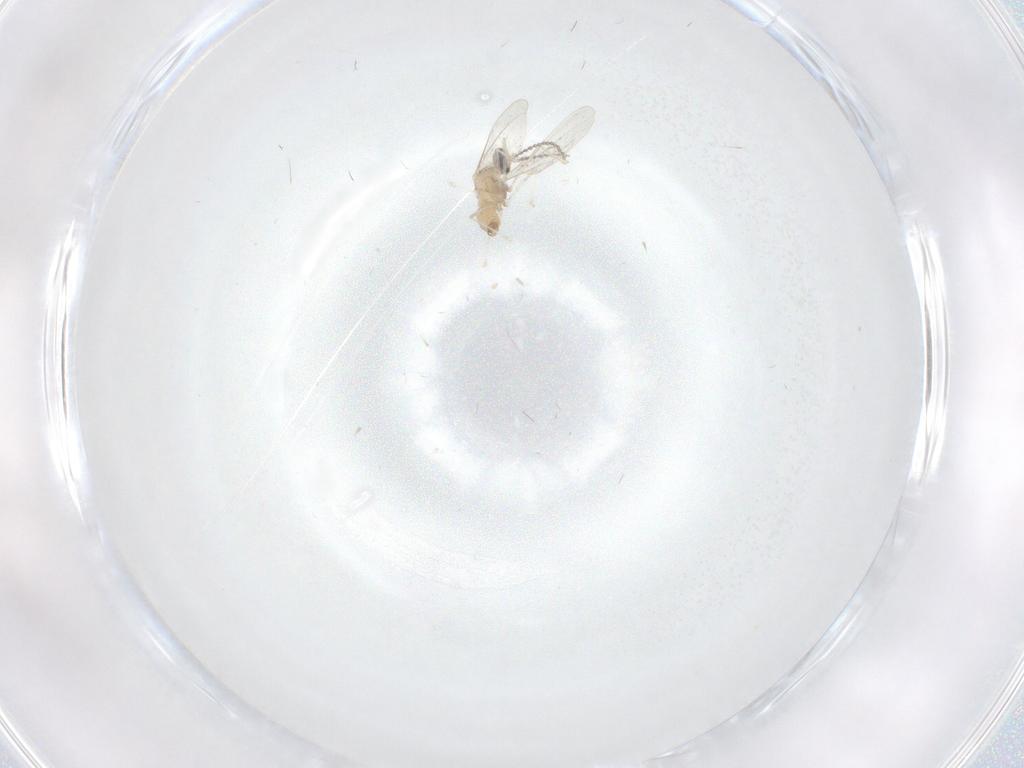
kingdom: Animalia
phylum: Arthropoda
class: Insecta
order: Diptera
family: Cecidomyiidae
